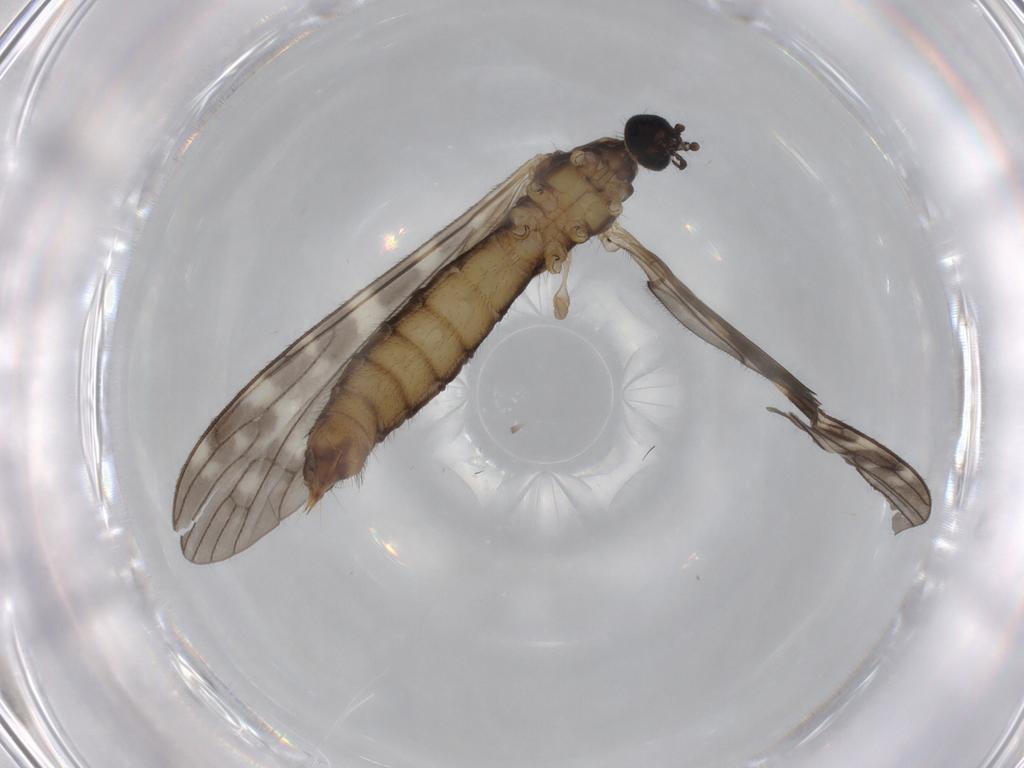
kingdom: Animalia
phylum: Arthropoda
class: Insecta
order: Diptera
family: Limoniidae
